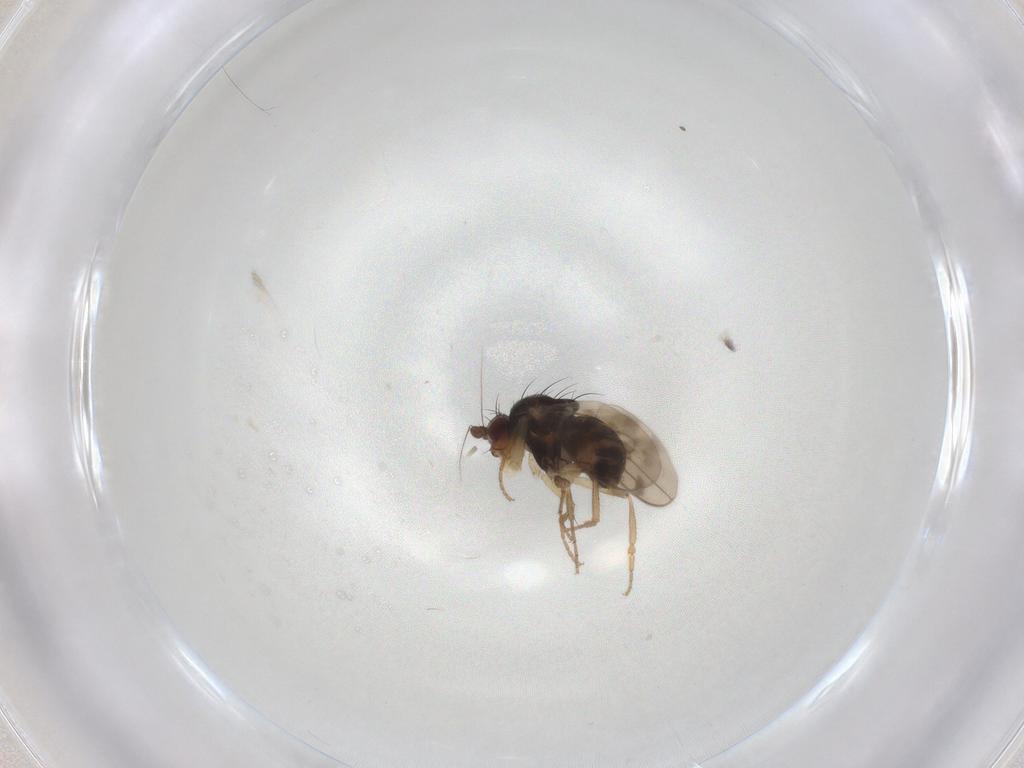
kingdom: Animalia
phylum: Arthropoda
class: Insecta
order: Diptera
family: Sphaeroceridae
